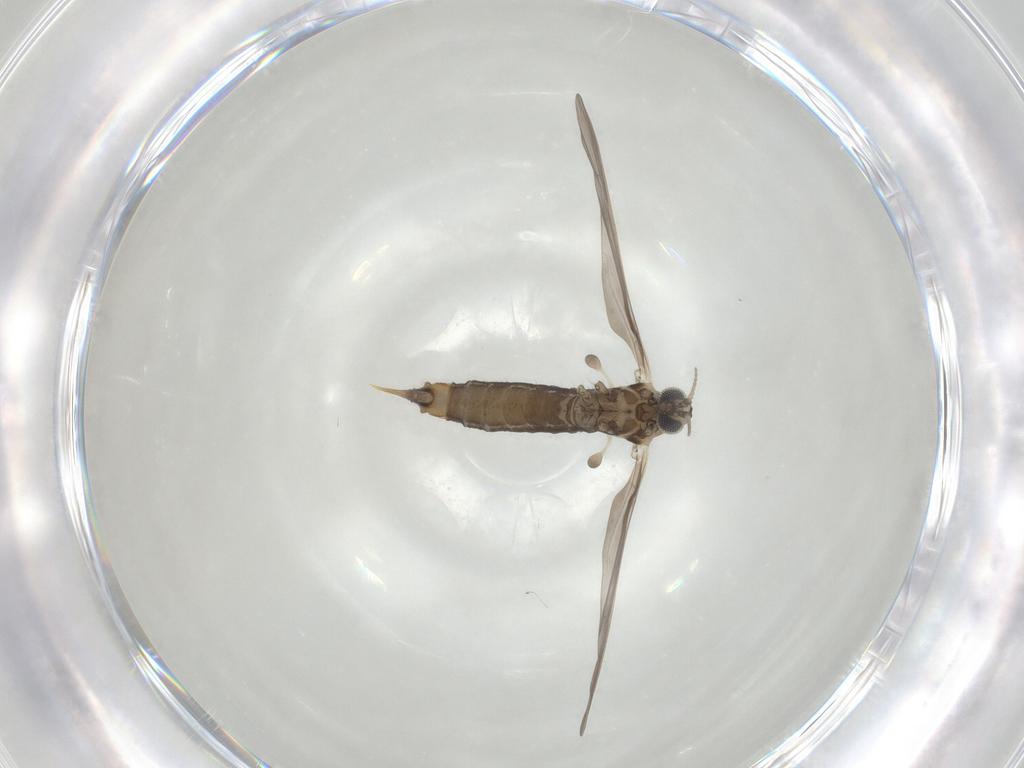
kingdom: Animalia
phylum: Arthropoda
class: Insecta
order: Diptera
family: Limoniidae
